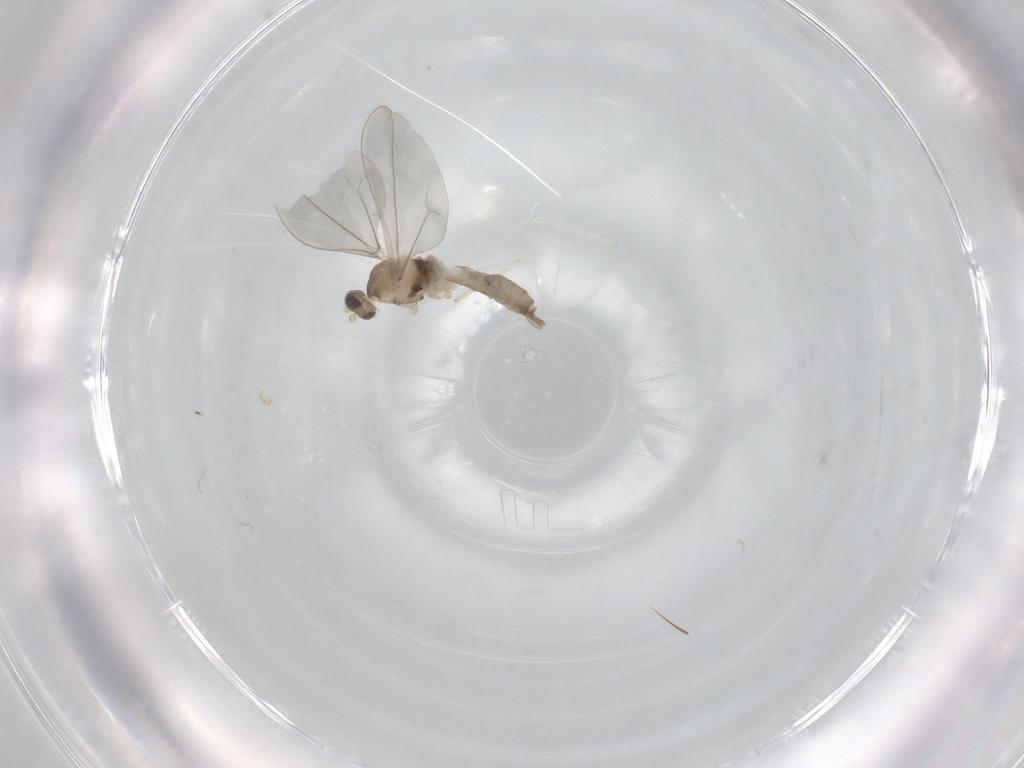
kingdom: Animalia
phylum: Arthropoda
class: Insecta
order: Diptera
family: Cecidomyiidae
